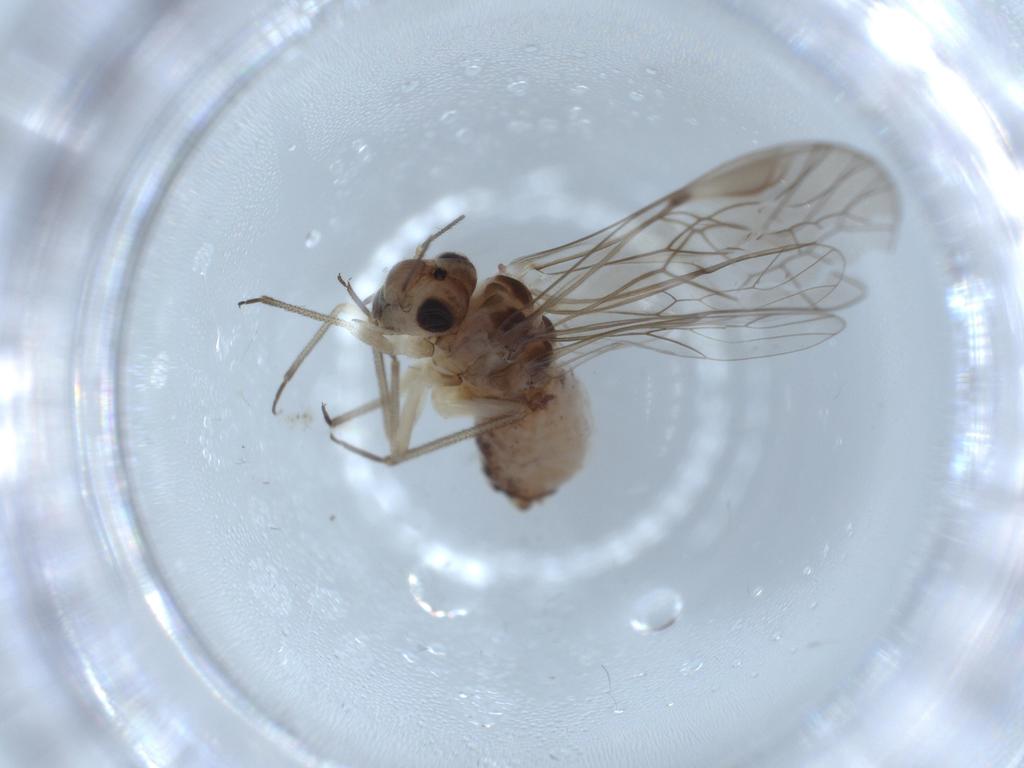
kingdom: Animalia
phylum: Arthropoda
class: Insecta
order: Psocodea
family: Psocidae
